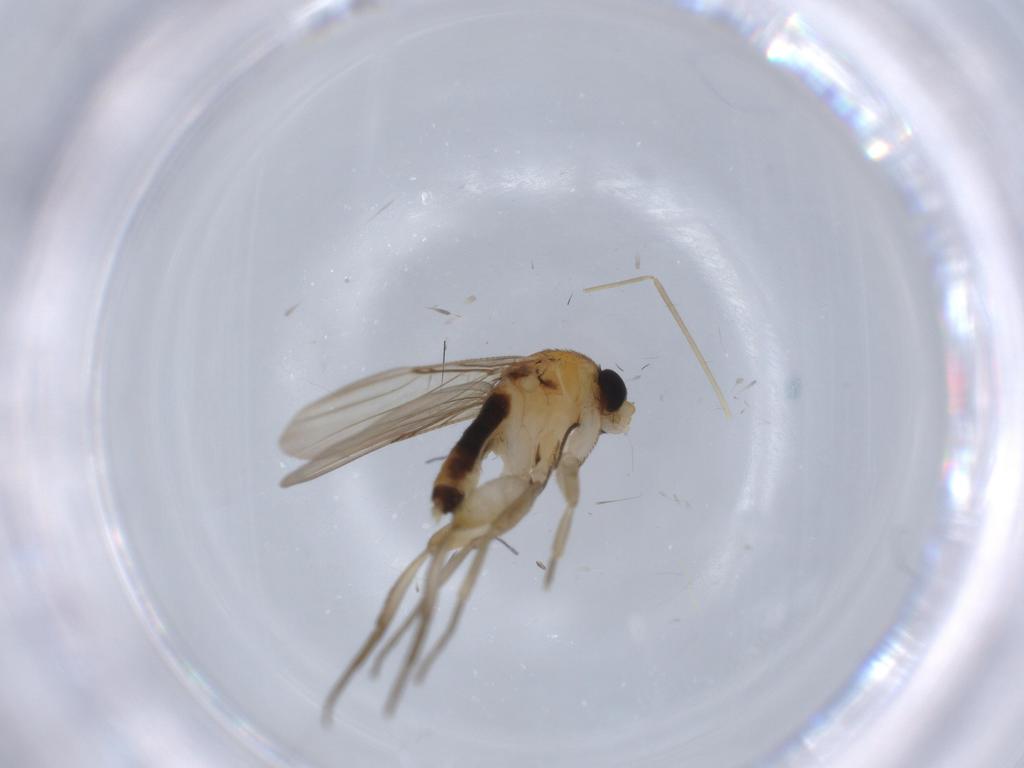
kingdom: Animalia
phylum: Arthropoda
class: Insecta
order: Diptera
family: Phoridae
